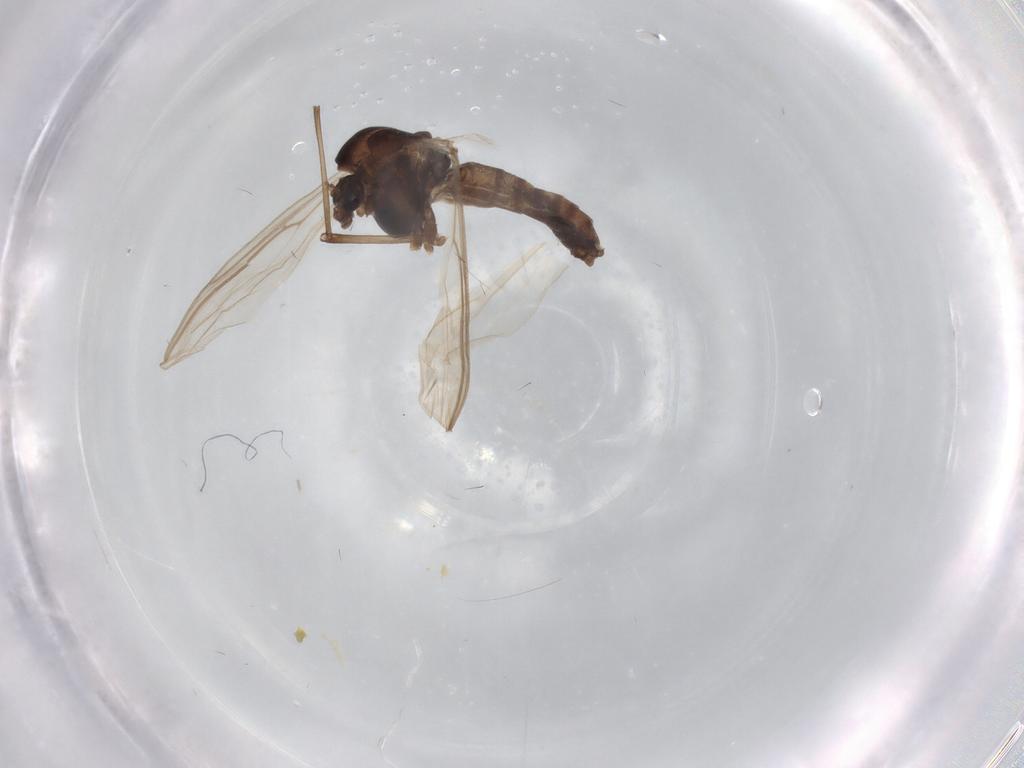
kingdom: Animalia
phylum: Arthropoda
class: Insecta
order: Diptera
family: Chironomidae
